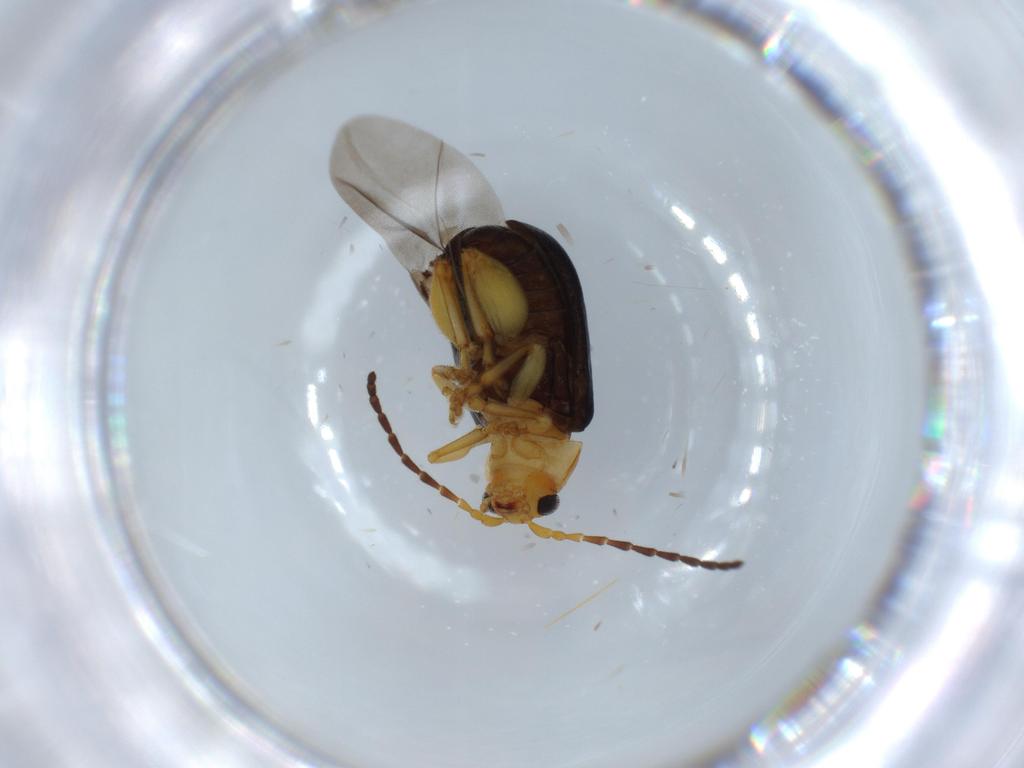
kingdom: Animalia
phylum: Arthropoda
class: Insecta
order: Coleoptera
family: Chrysomelidae
